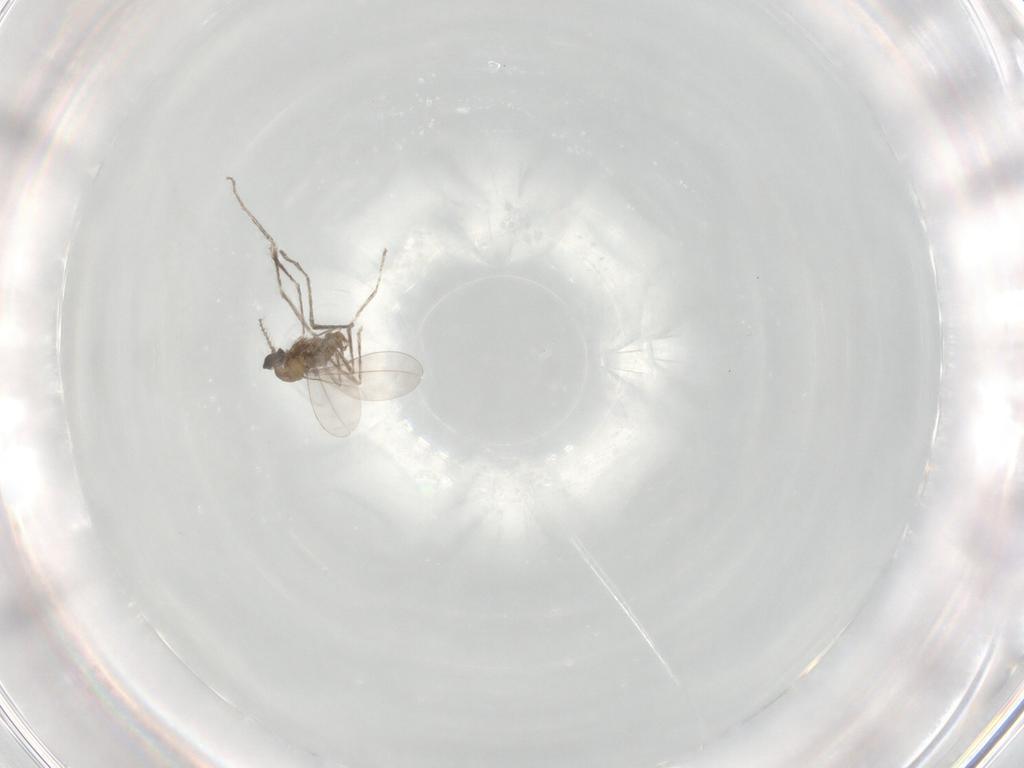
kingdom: Animalia
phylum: Arthropoda
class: Insecta
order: Diptera
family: Cecidomyiidae
